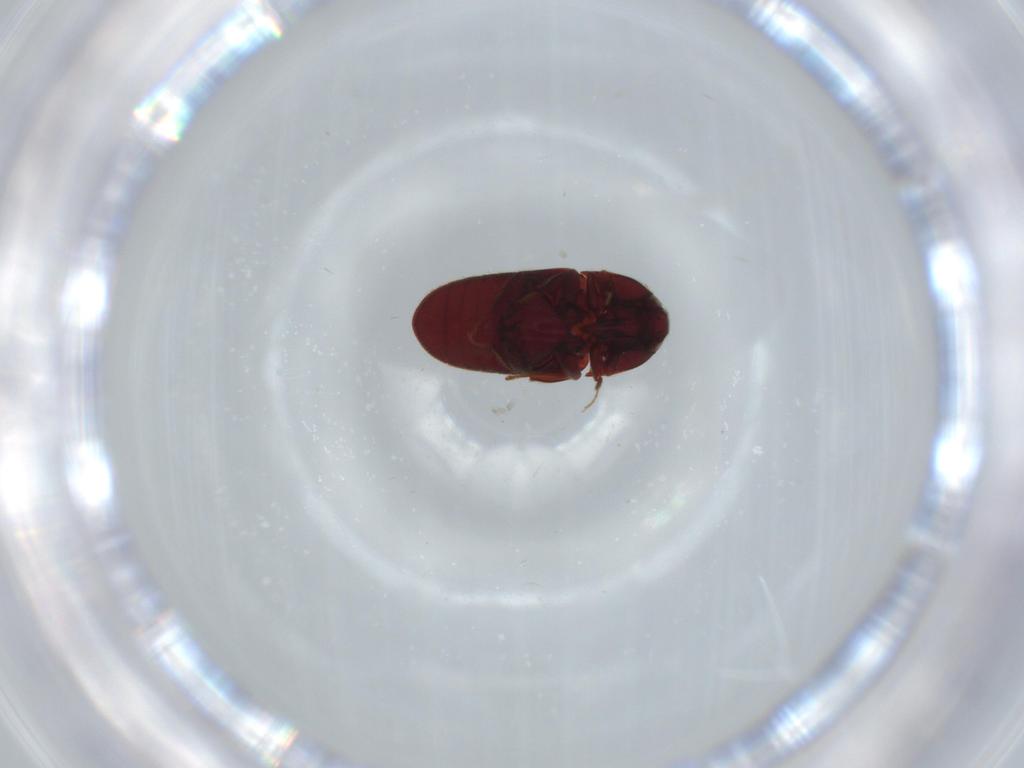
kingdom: Animalia
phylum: Arthropoda
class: Insecta
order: Coleoptera
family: Throscidae
